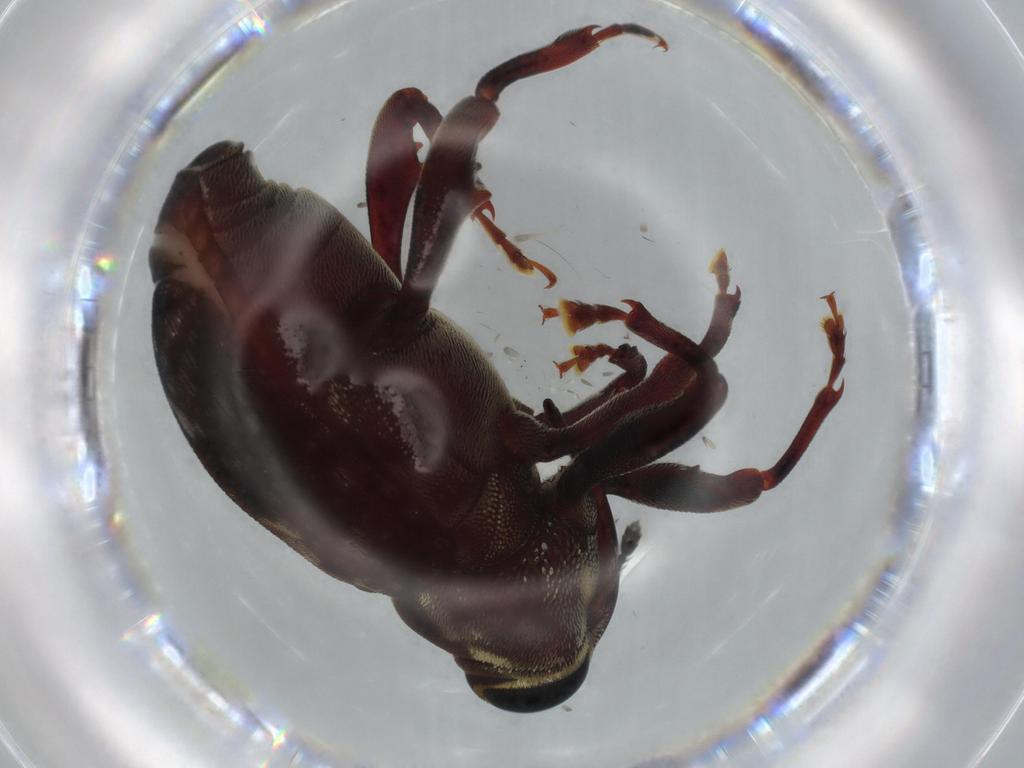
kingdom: Animalia
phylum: Arthropoda
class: Insecta
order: Coleoptera
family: Curculionidae
